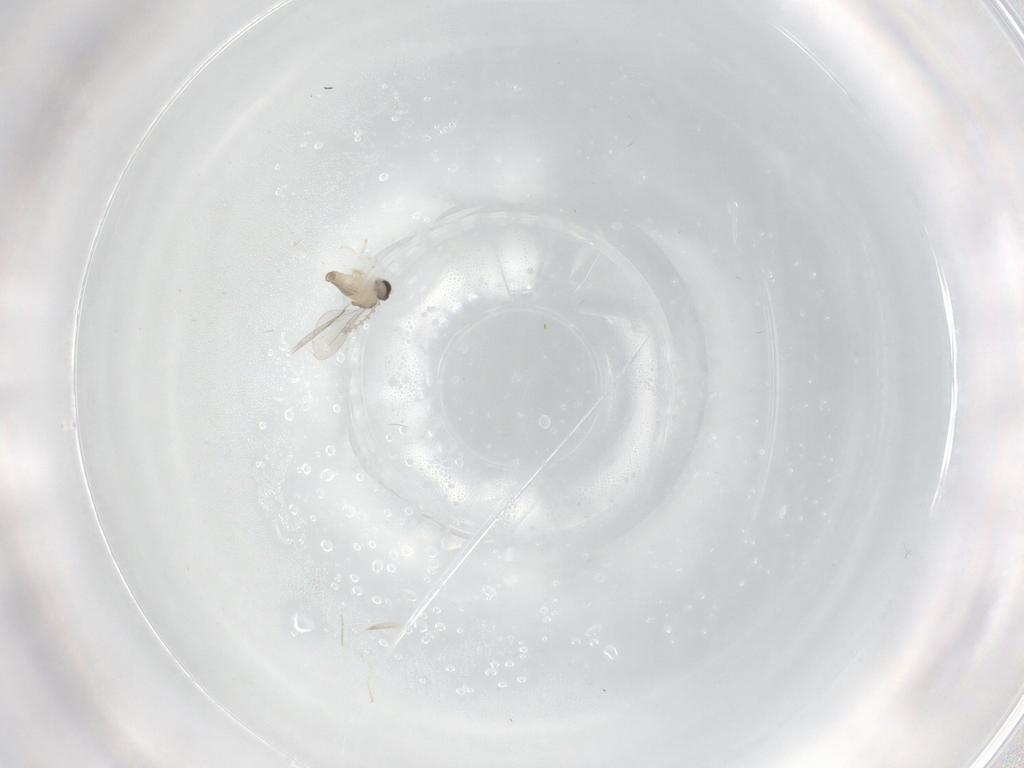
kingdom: Animalia
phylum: Arthropoda
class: Insecta
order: Diptera
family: Cecidomyiidae
